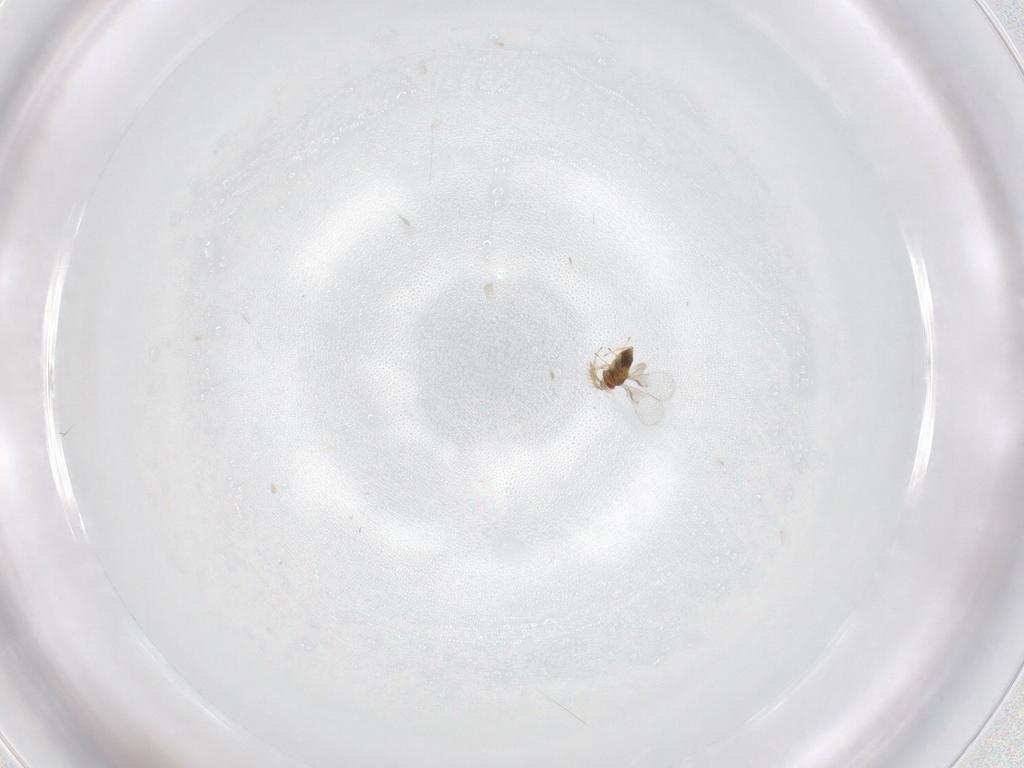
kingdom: Animalia
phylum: Arthropoda
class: Insecta
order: Hymenoptera
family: Trichogrammatidae
